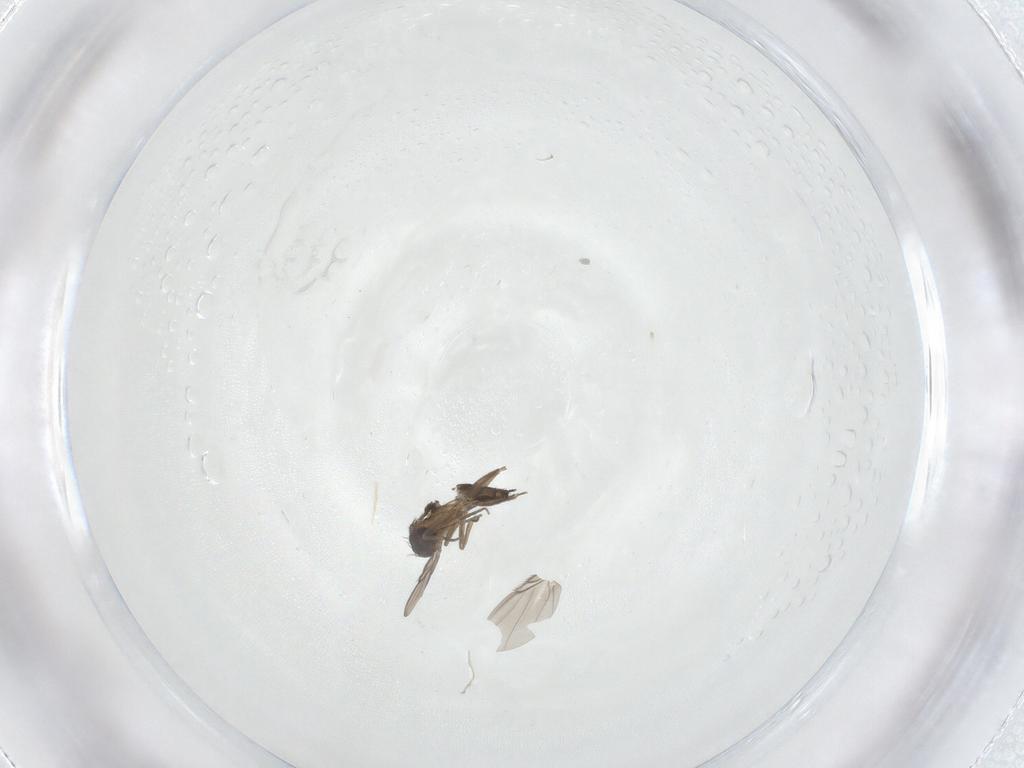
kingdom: Animalia
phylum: Arthropoda
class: Insecta
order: Diptera
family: Phoridae
